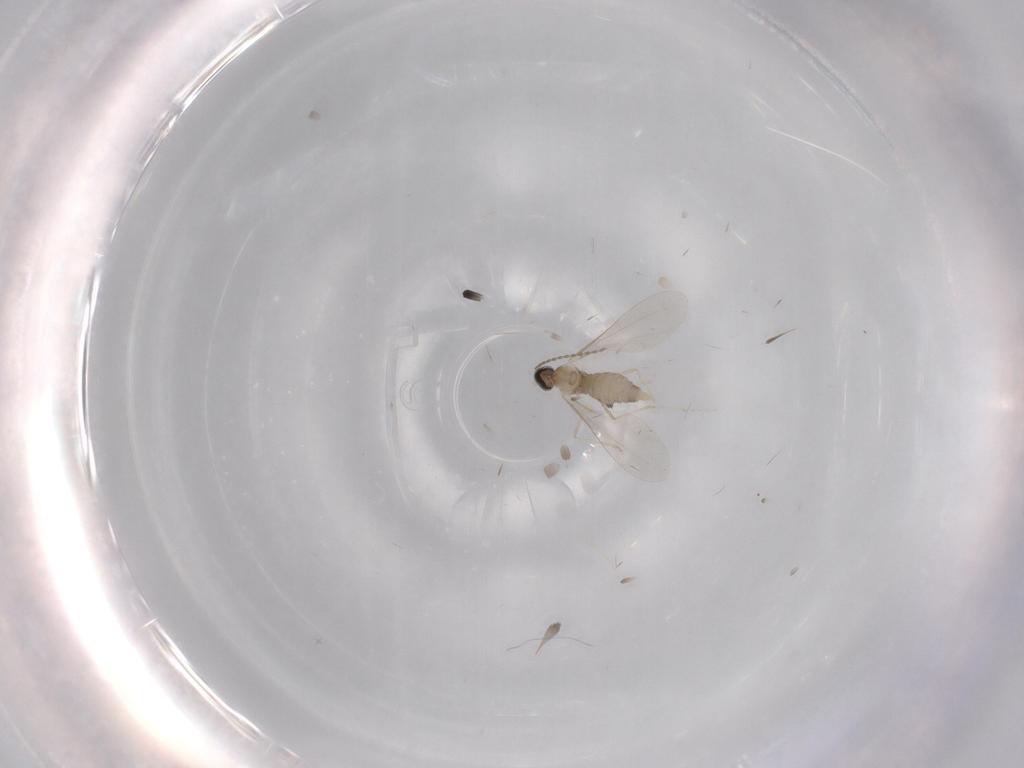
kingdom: Animalia
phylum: Arthropoda
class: Insecta
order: Diptera
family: Cecidomyiidae
